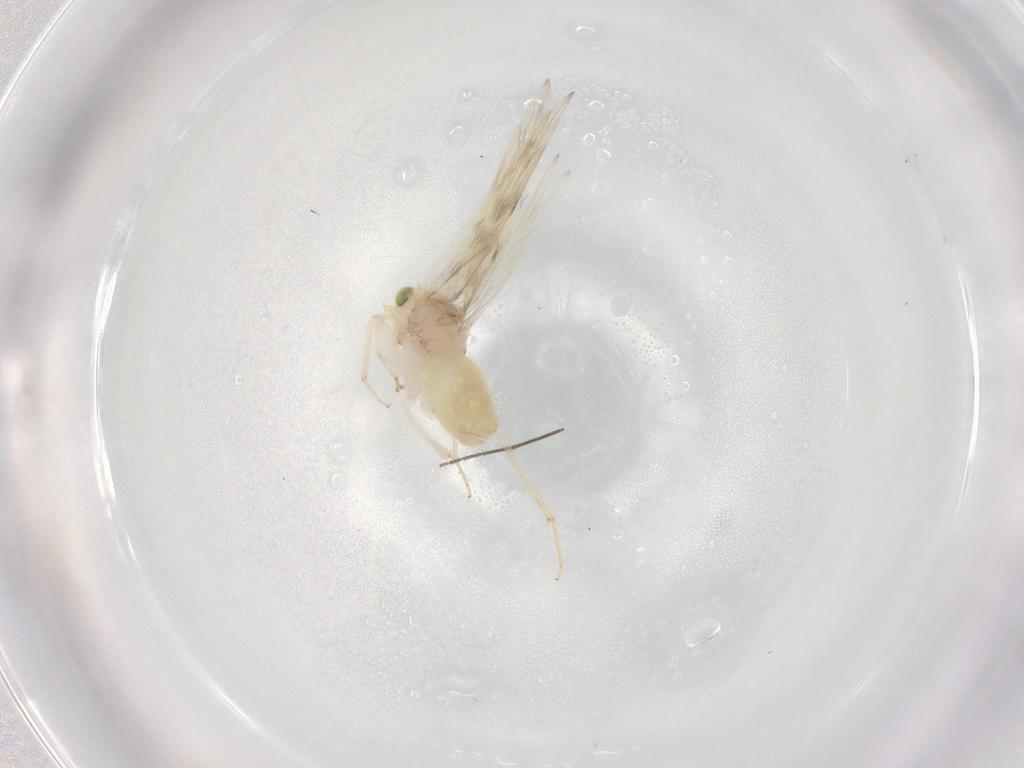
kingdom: Animalia
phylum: Arthropoda
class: Insecta
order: Psocodea
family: Lepidopsocidae
